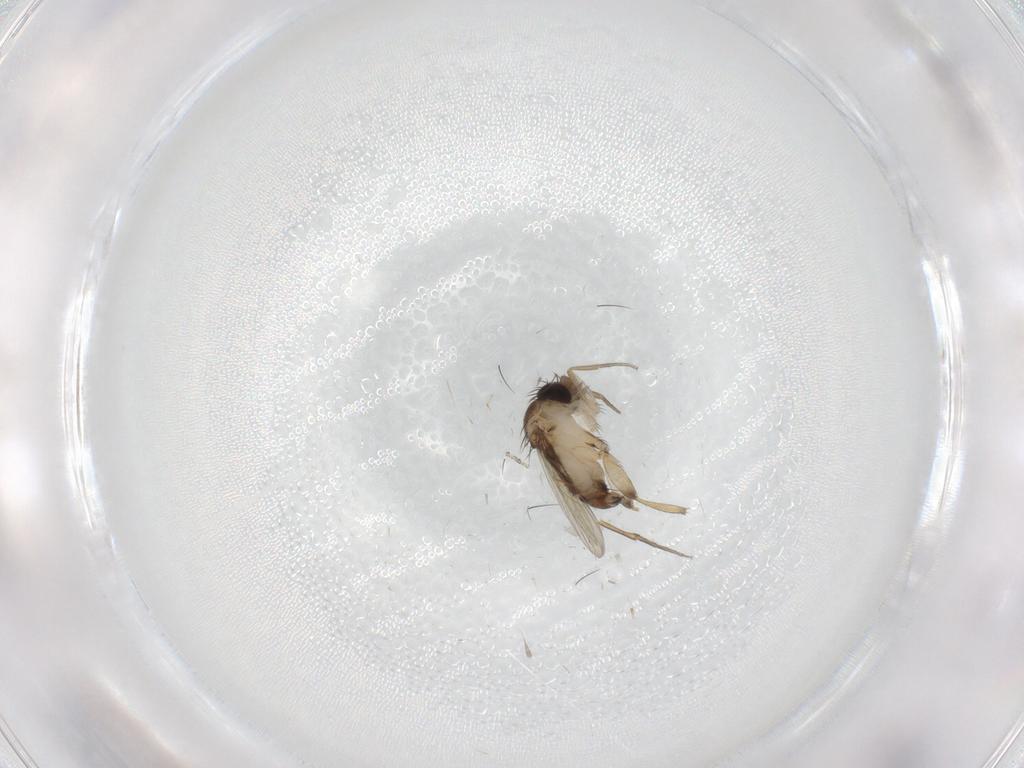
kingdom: Animalia
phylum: Arthropoda
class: Insecta
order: Diptera
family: Phoridae
